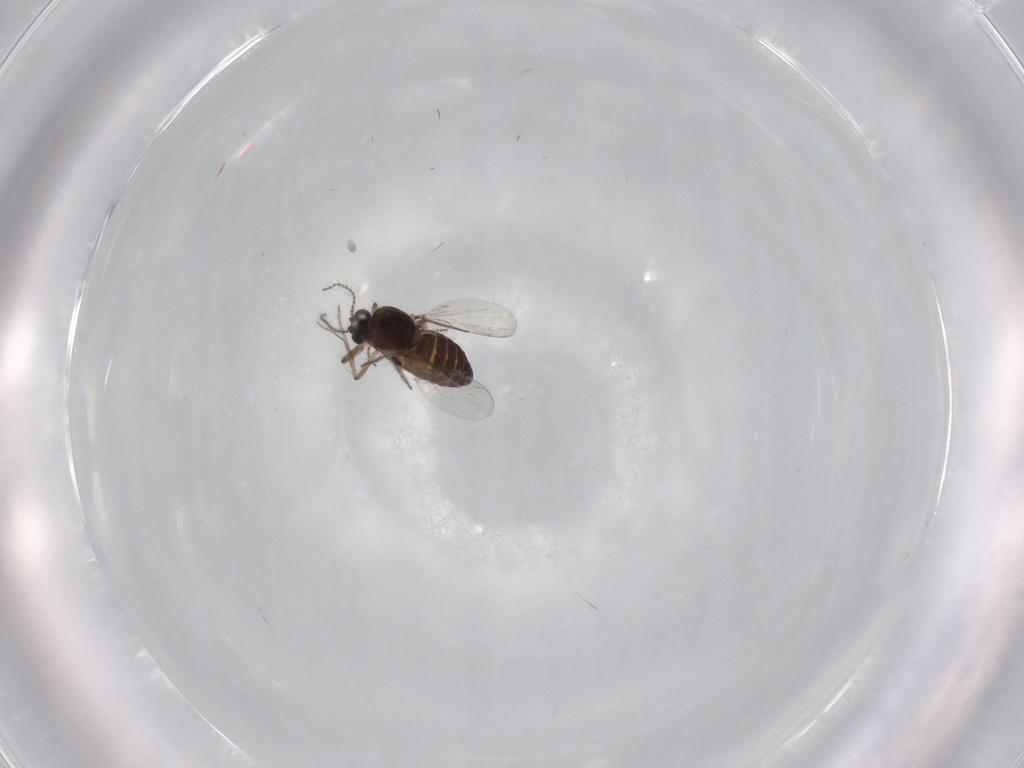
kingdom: Animalia
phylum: Arthropoda
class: Insecta
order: Diptera
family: Ceratopogonidae
